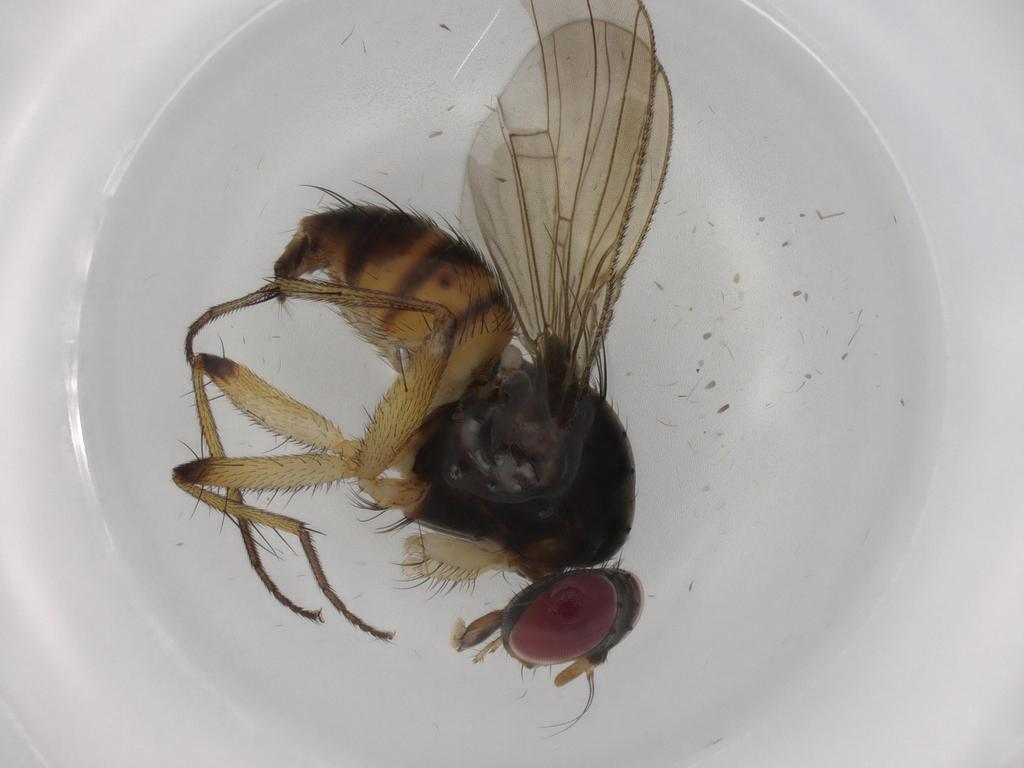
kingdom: Animalia
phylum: Arthropoda
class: Insecta
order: Diptera
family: Muscidae
